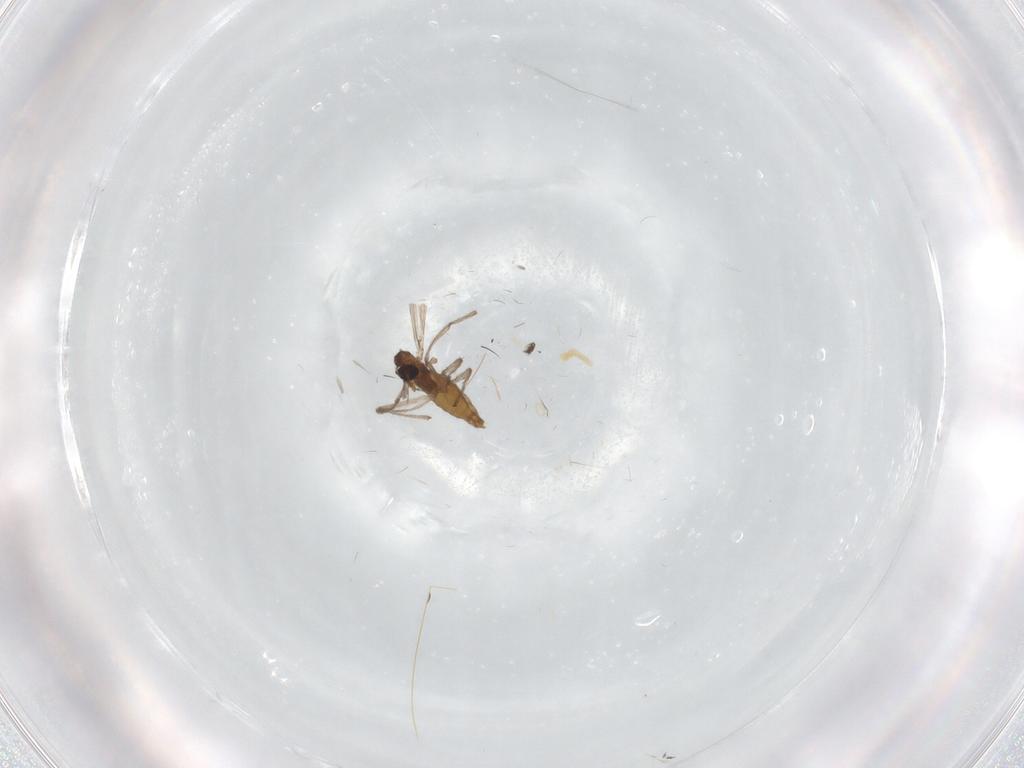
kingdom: Animalia
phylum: Arthropoda
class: Insecta
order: Diptera
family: Chironomidae
